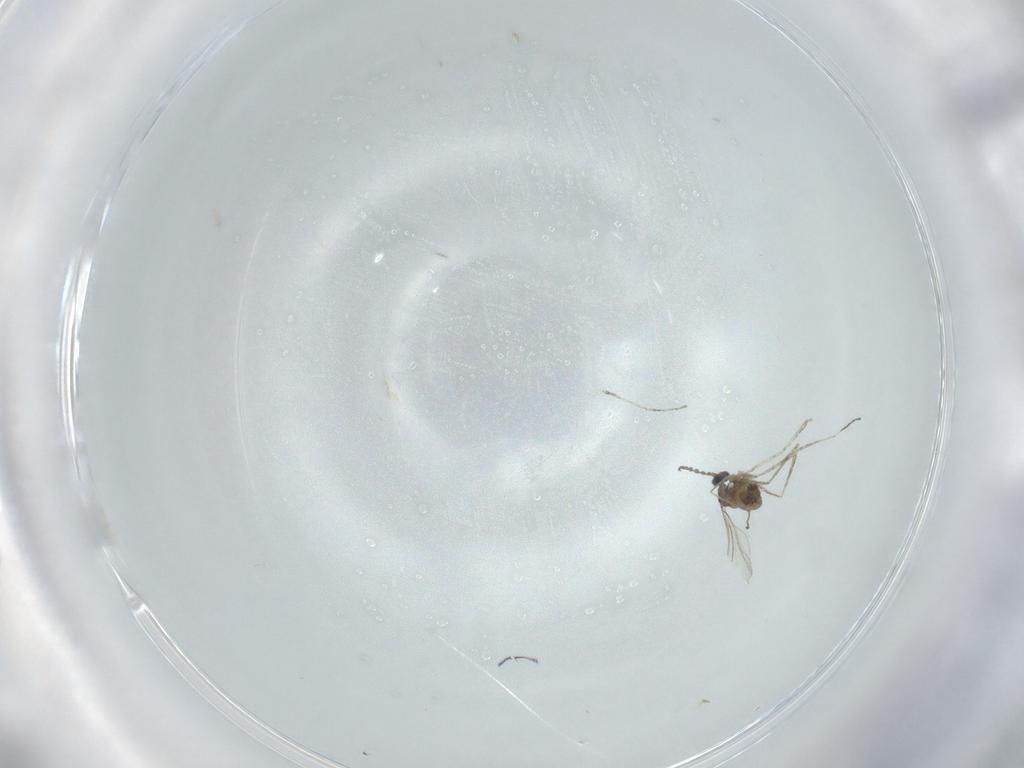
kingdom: Animalia
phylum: Arthropoda
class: Insecta
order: Diptera
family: Cecidomyiidae
